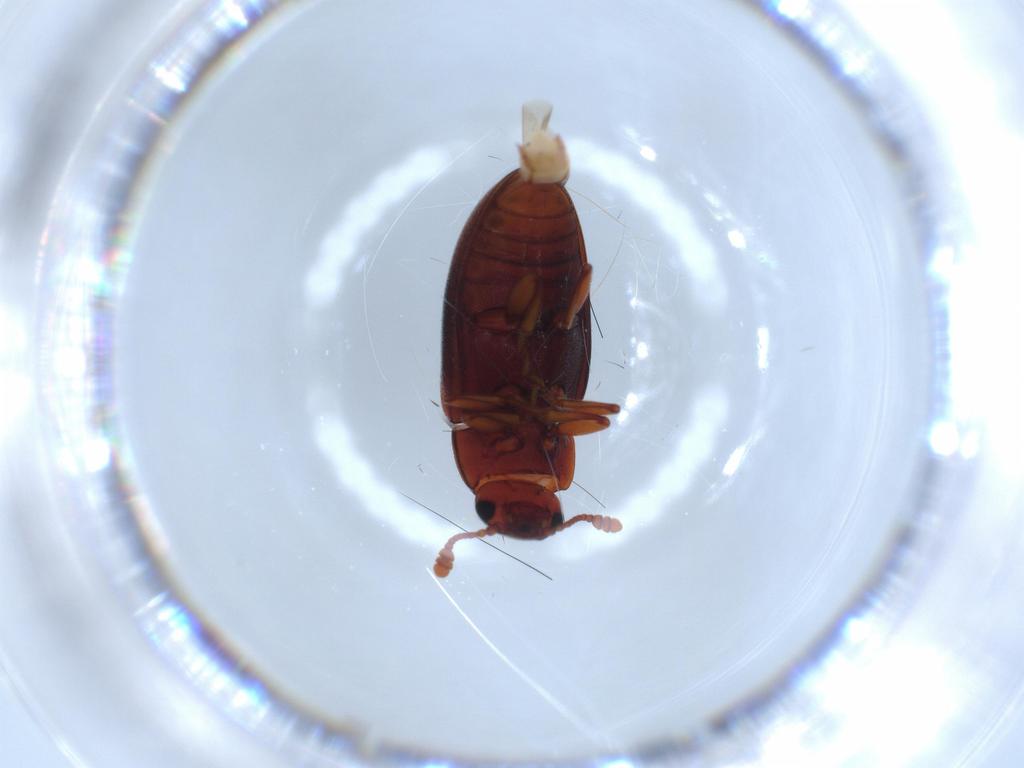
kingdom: Animalia
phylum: Arthropoda
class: Insecta
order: Coleoptera
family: Erotylidae
